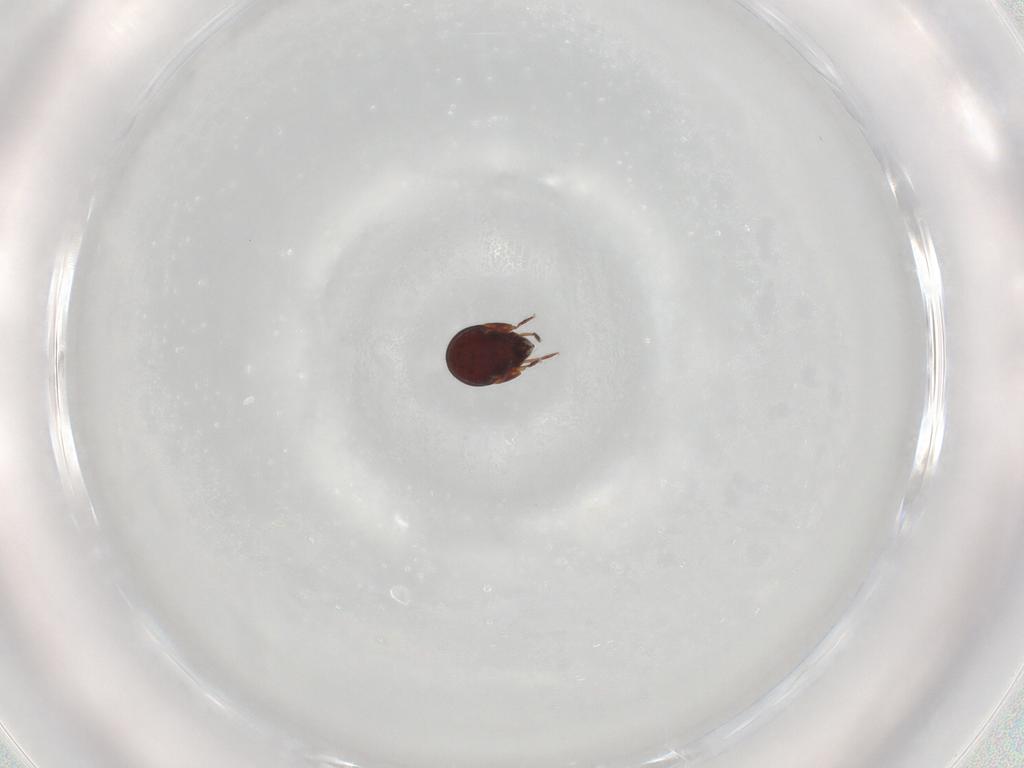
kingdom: Animalia
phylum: Arthropoda
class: Arachnida
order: Sarcoptiformes
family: Humerobatidae
